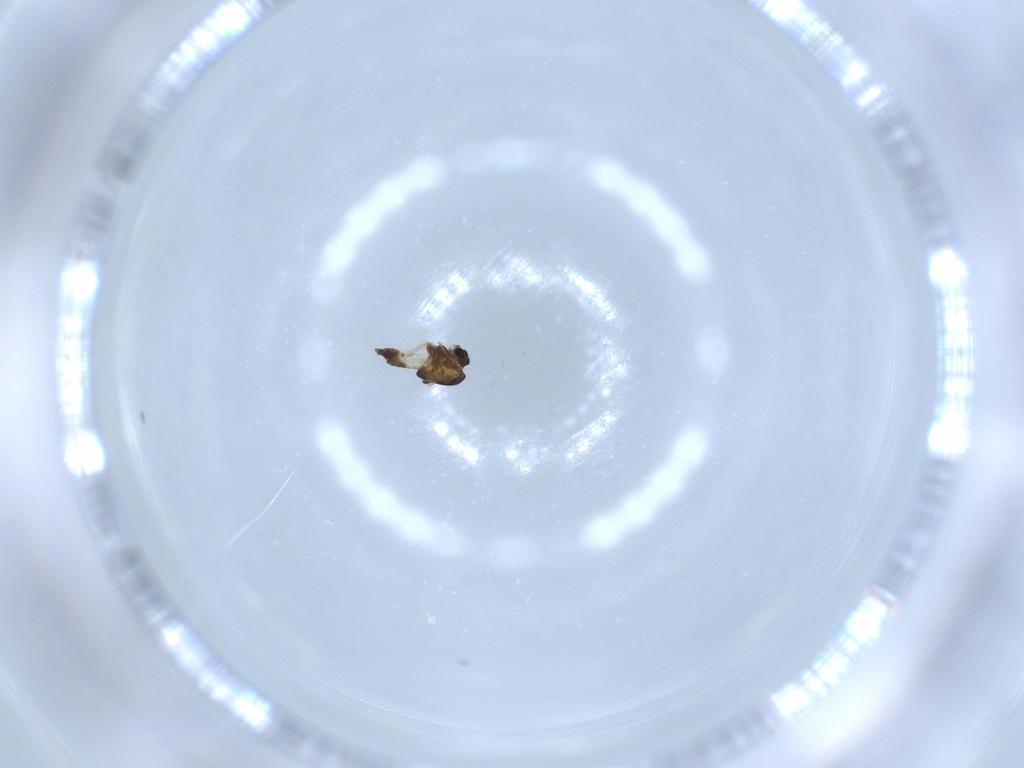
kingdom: Animalia
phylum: Arthropoda
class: Insecta
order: Diptera
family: Chironomidae
